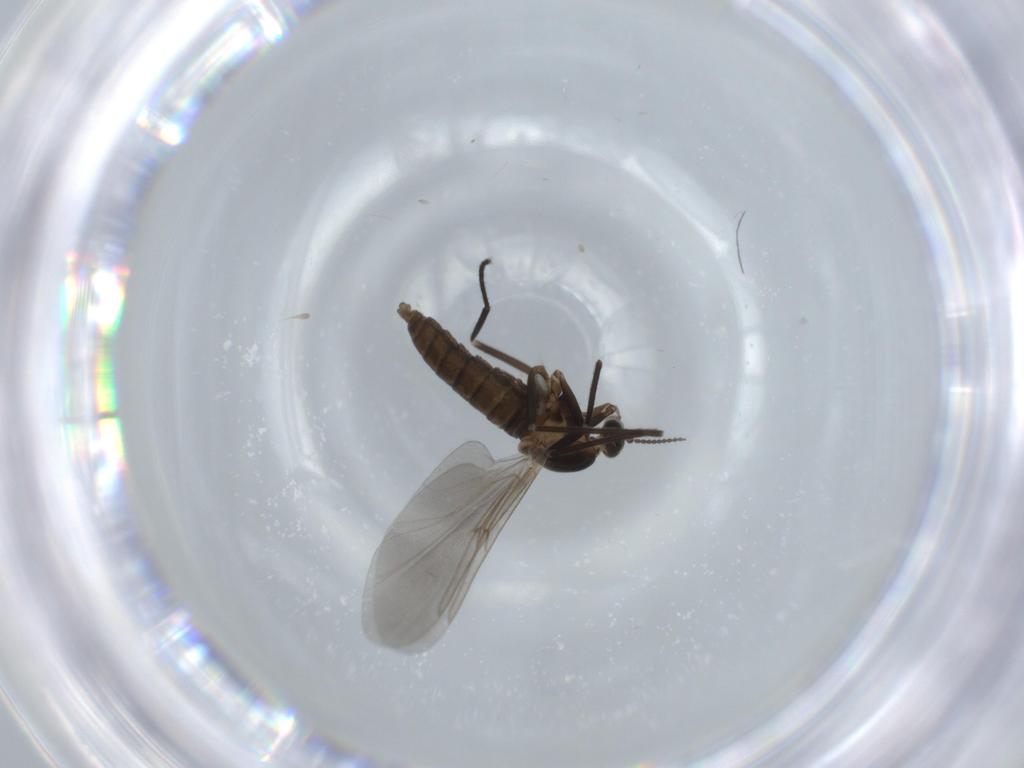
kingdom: Animalia
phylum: Arthropoda
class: Insecta
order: Diptera
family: Cecidomyiidae
